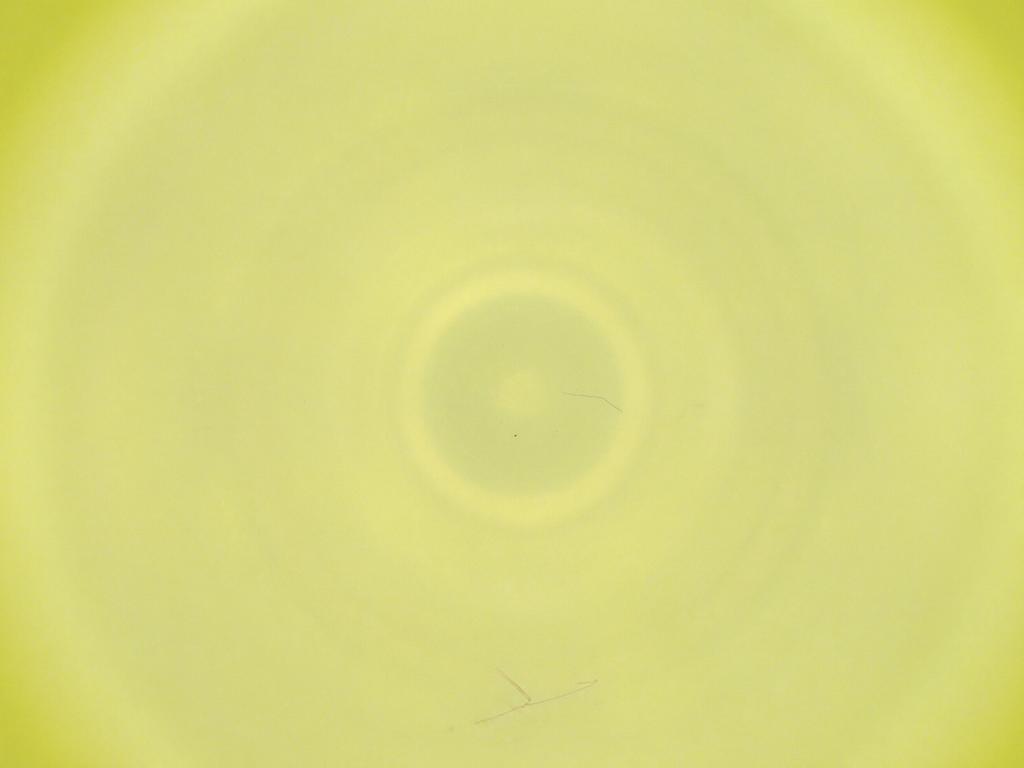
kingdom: Animalia
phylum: Arthropoda
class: Insecta
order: Diptera
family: Cecidomyiidae
